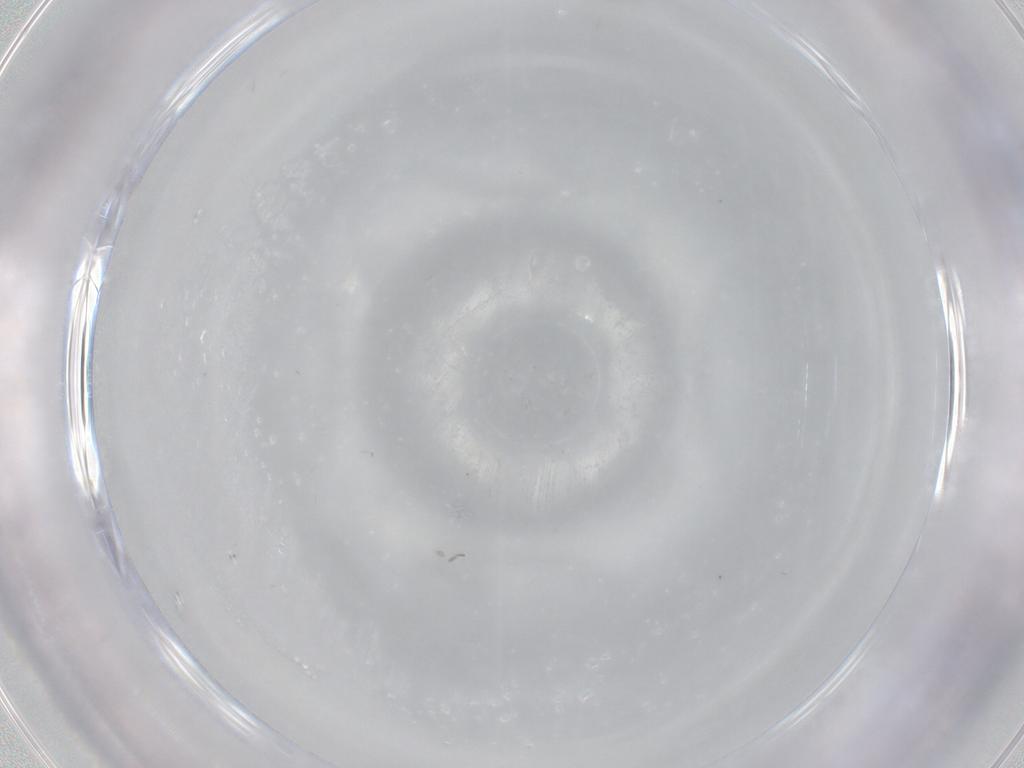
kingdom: Animalia
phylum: Arthropoda
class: Insecta
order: Diptera
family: Cecidomyiidae
